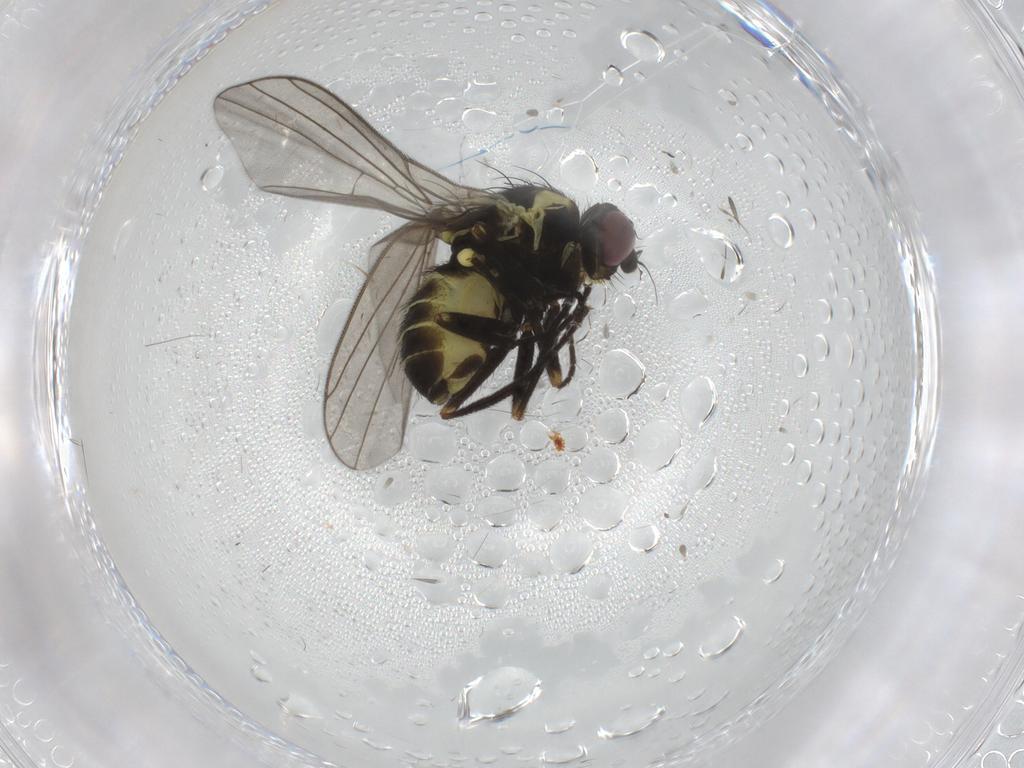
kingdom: Animalia
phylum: Arthropoda
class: Insecta
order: Diptera
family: Agromyzidae
